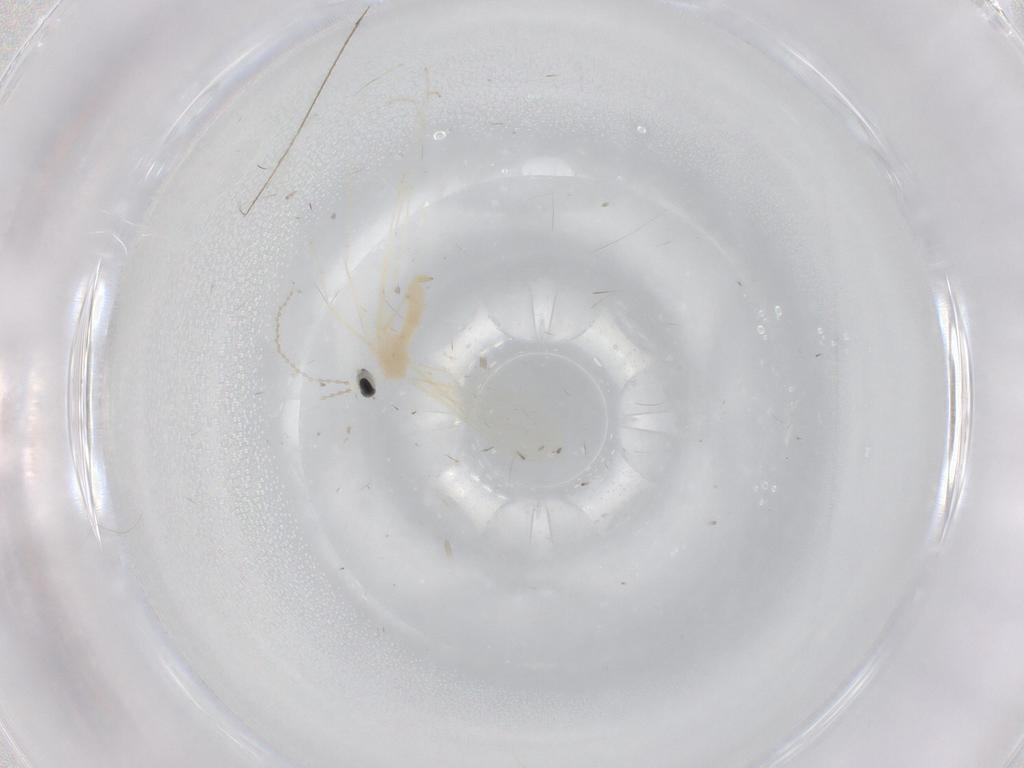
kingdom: Animalia
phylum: Arthropoda
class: Insecta
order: Diptera
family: Cecidomyiidae
